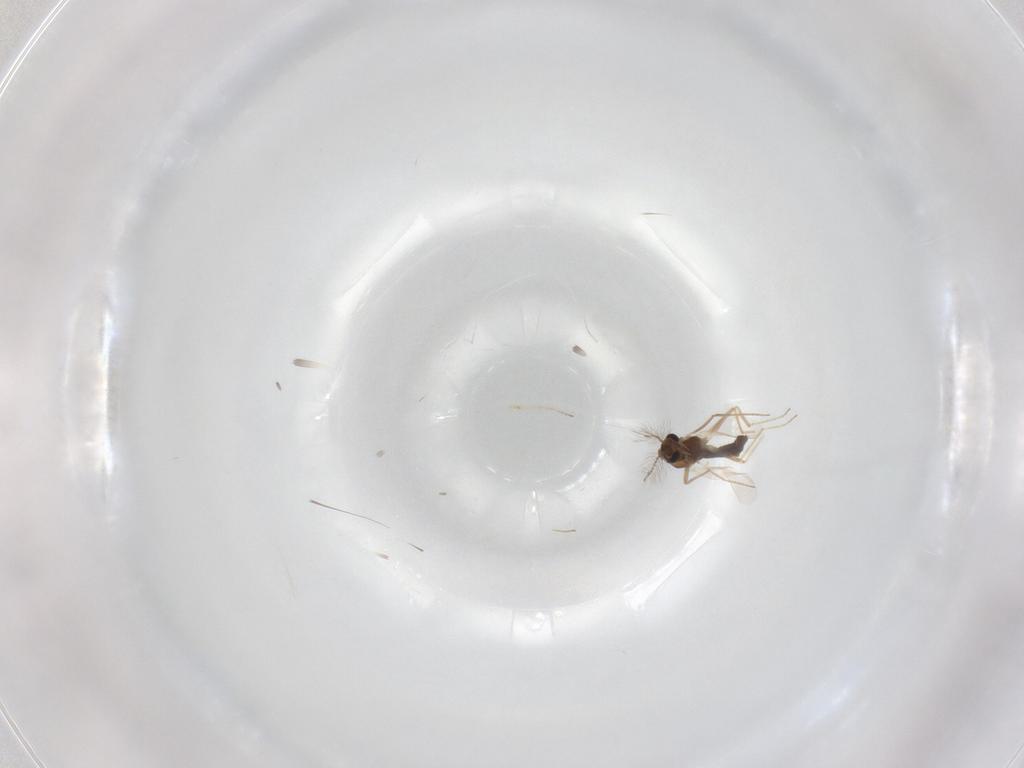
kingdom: Animalia
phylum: Arthropoda
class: Insecta
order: Diptera
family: Chironomidae
